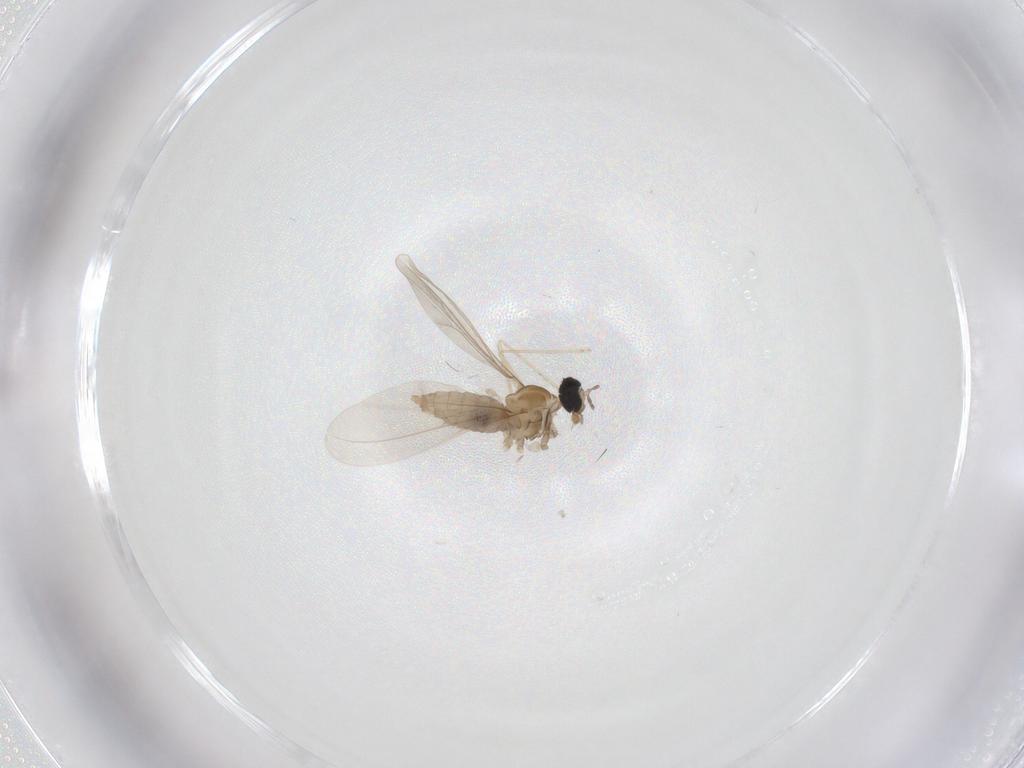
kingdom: Animalia
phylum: Arthropoda
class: Insecta
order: Diptera
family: Cecidomyiidae
